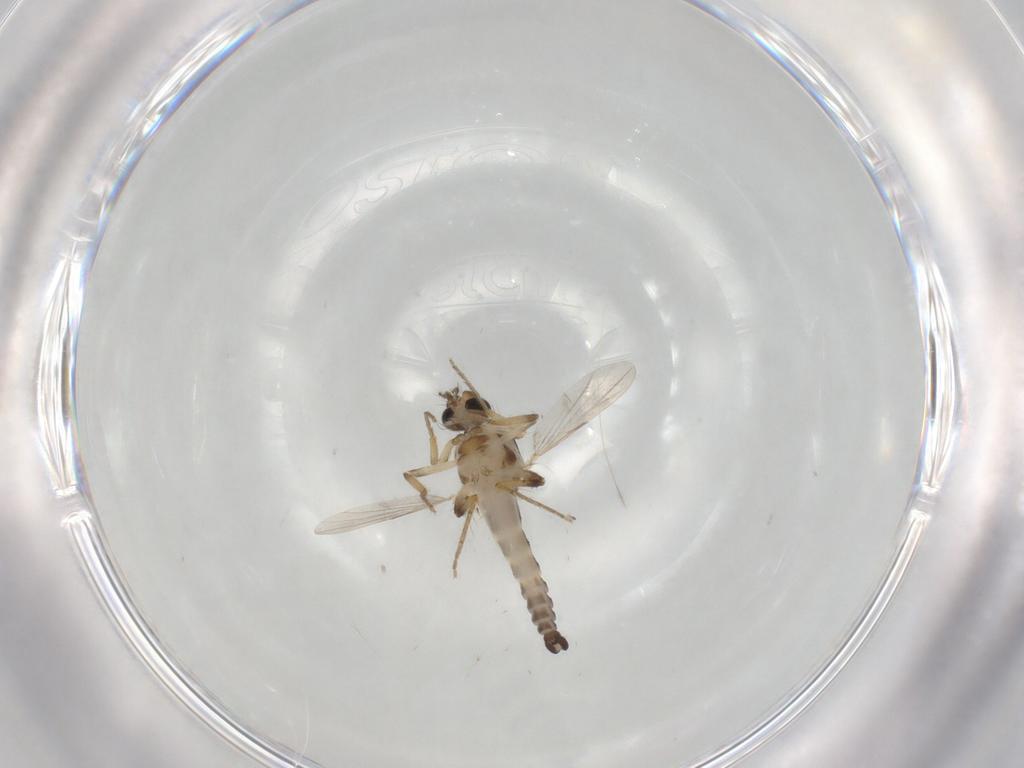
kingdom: Animalia
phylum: Arthropoda
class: Insecta
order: Diptera
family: Ceratopogonidae
